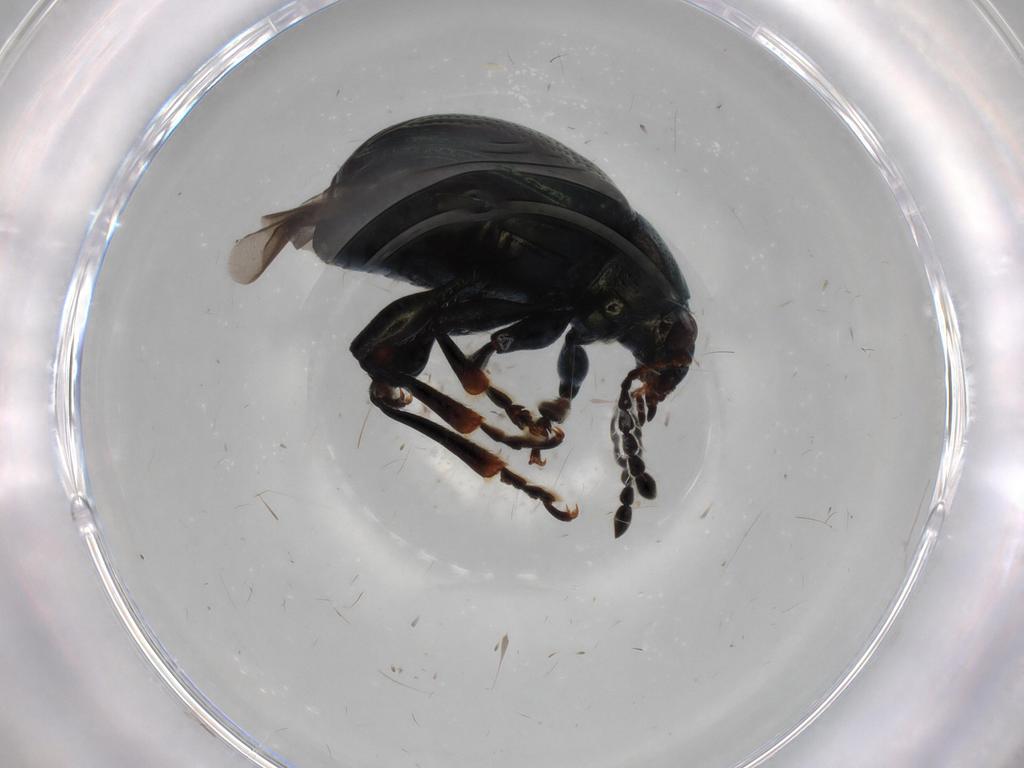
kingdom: Animalia
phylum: Arthropoda
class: Insecta
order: Coleoptera
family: Chrysomelidae
